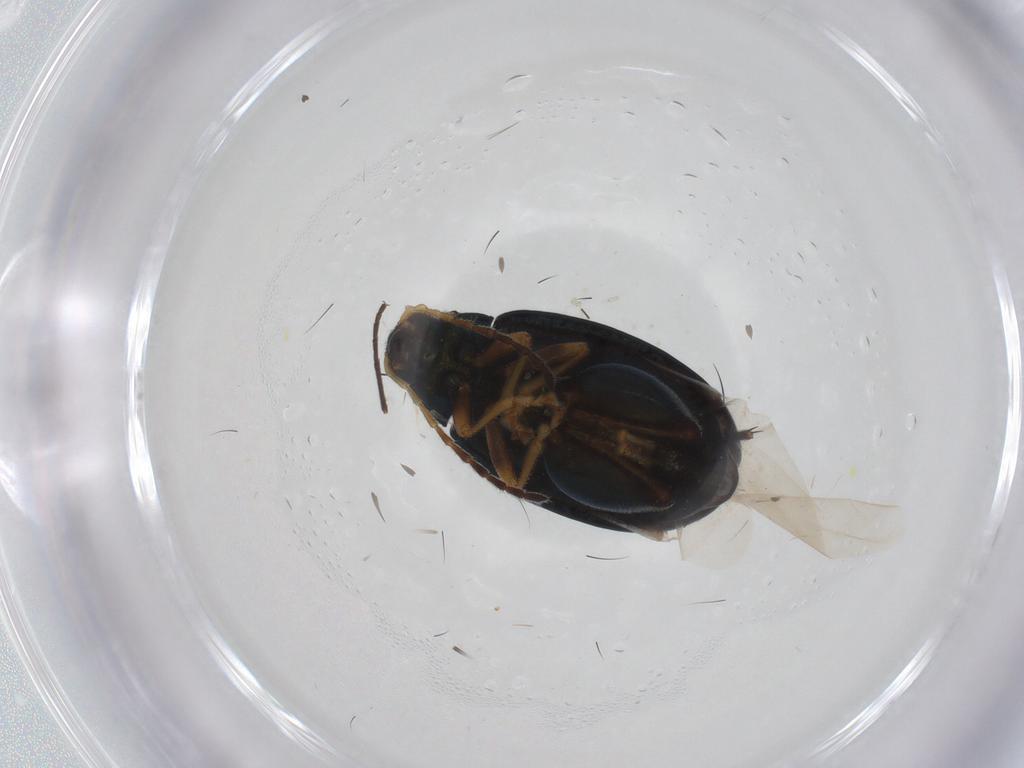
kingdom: Animalia
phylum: Arthropoda
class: Insecta
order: Coleoptera
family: Chrysomelidae
